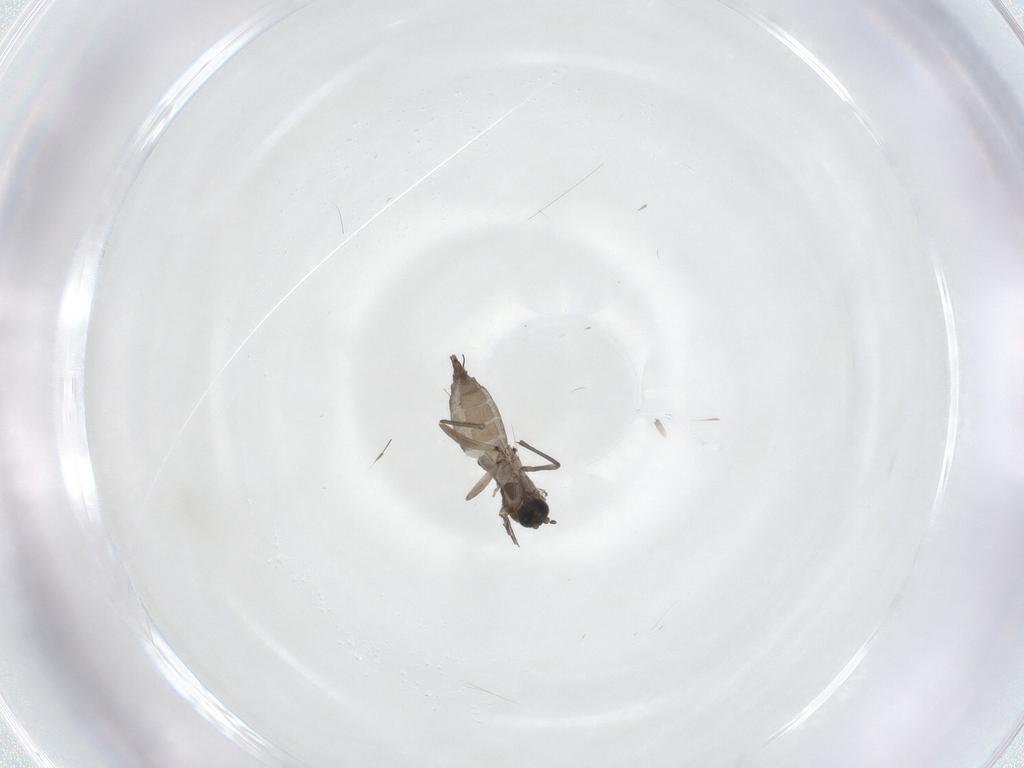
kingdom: Animalia
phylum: Arthropoda
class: Insecta
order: Diptera
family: Sciaridae
